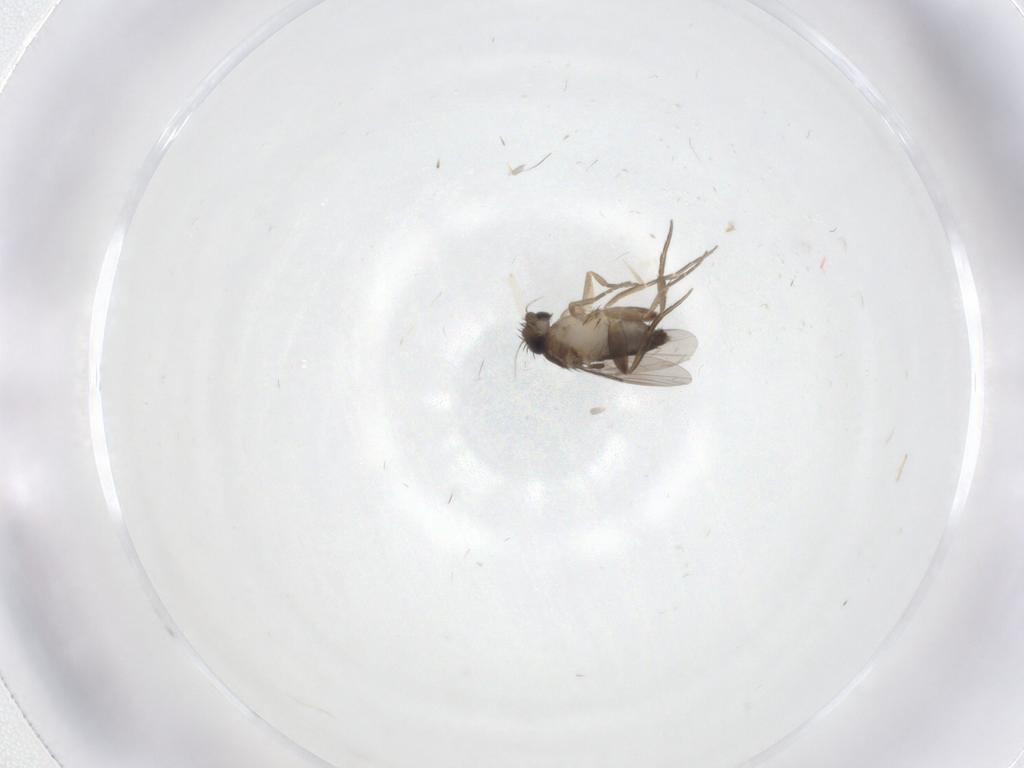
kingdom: Animalia
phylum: Arthropoda
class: Insecta
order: Diptera
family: Phoridae
